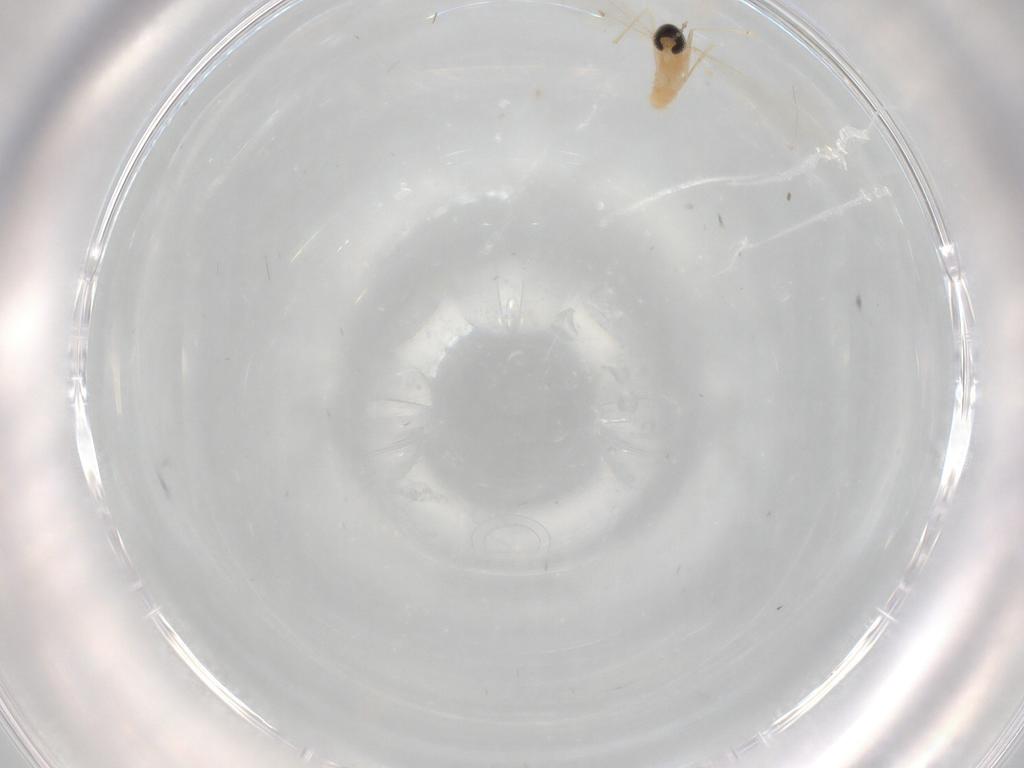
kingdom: Animalia
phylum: Arthropoda
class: Insecta
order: Diptera
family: Cecidomyiidae
